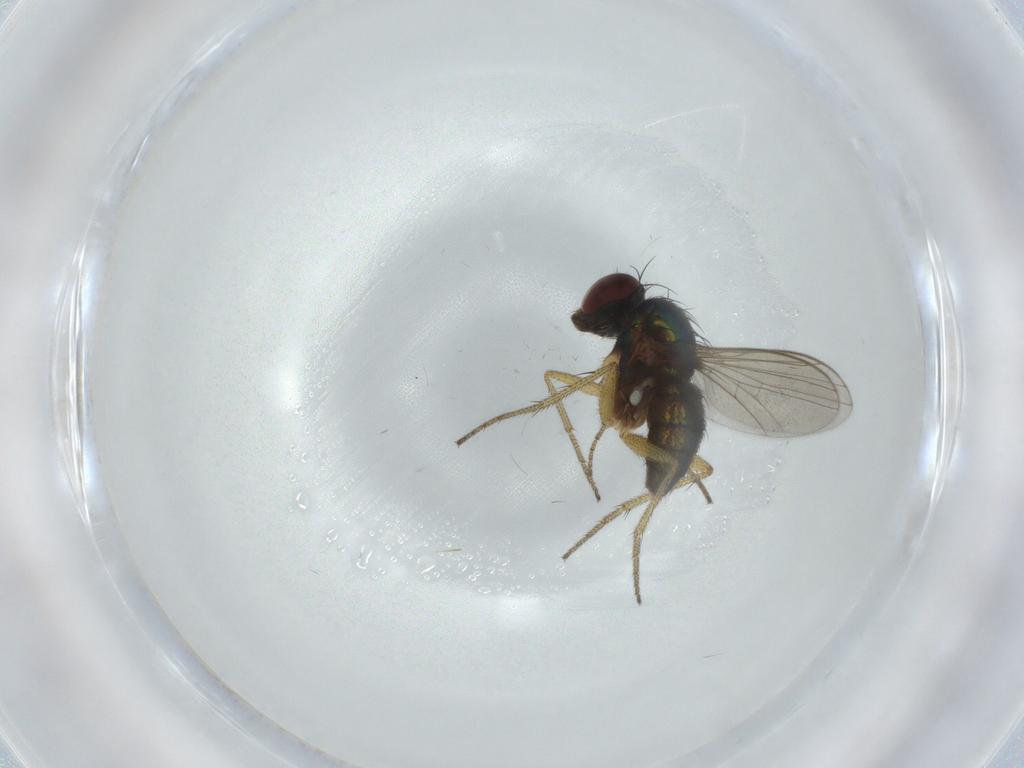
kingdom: Animalia
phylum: Arthropoda
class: Insecta
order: Diptera
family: Dolichopodidae
